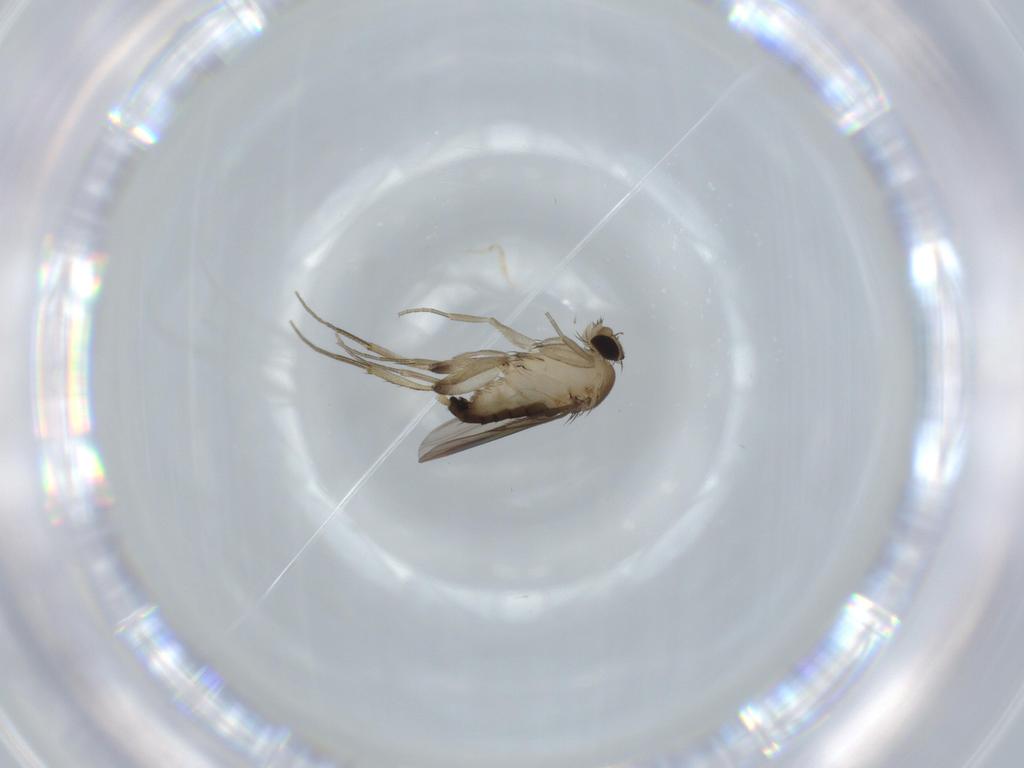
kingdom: Animalia
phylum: Arthropoda
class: Insecta
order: Diptera
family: Phoridae
